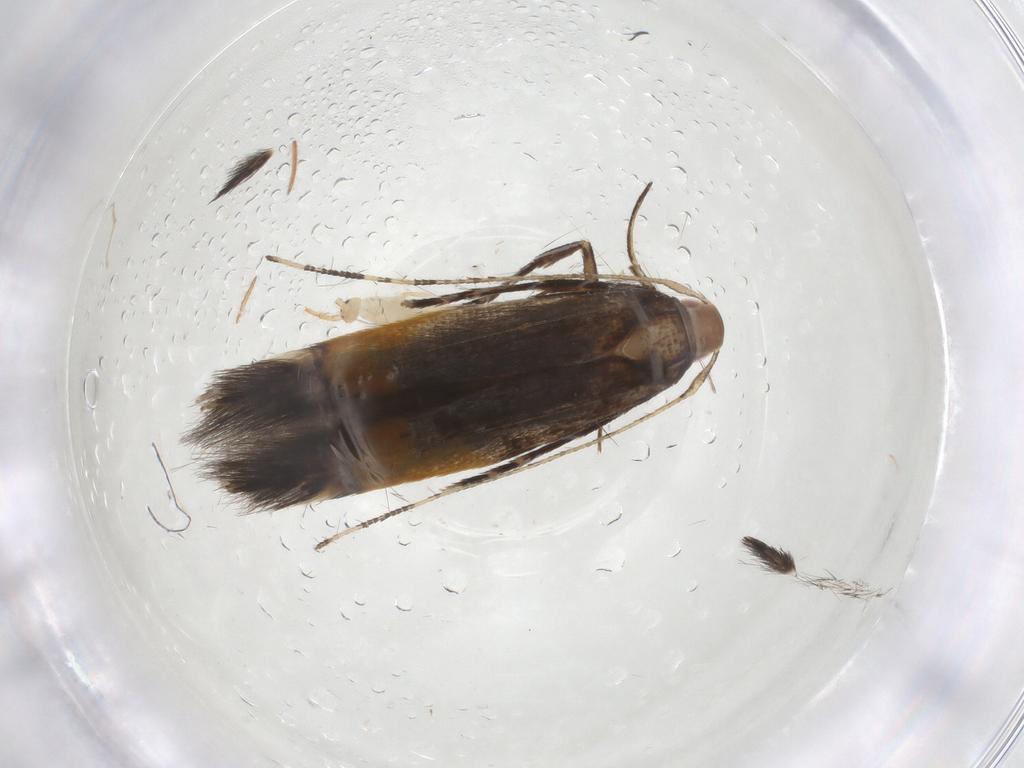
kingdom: Animalia
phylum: Arthropoda
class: Insecta
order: Lepidoptera
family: Cosmopterigidae
